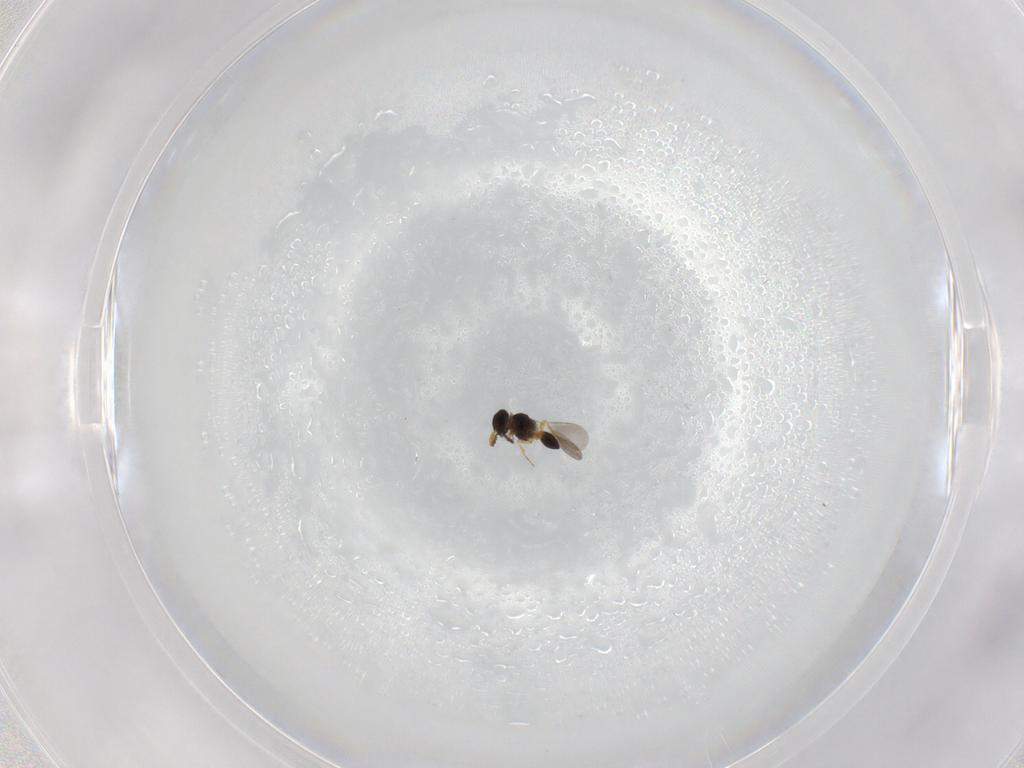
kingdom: Animalia
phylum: Arthropoda
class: Insecta
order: Hymenoptera
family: Platygastridae
